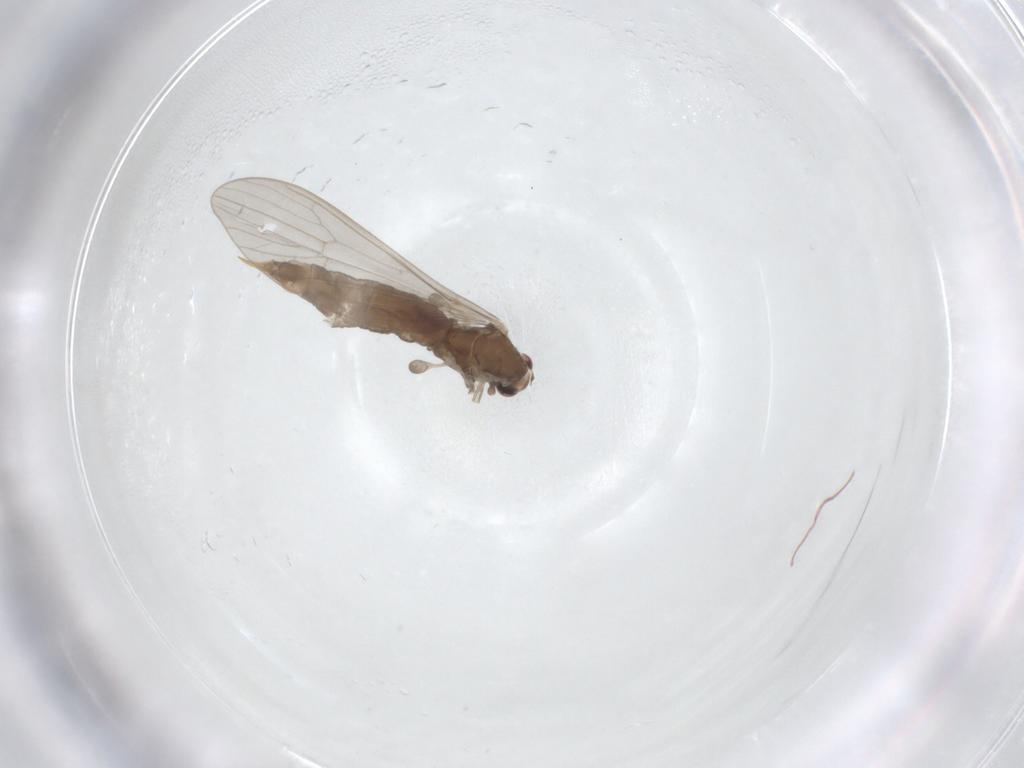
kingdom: Animalia
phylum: Arthropoda
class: Insecta
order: Diptera
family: Limoniidae
